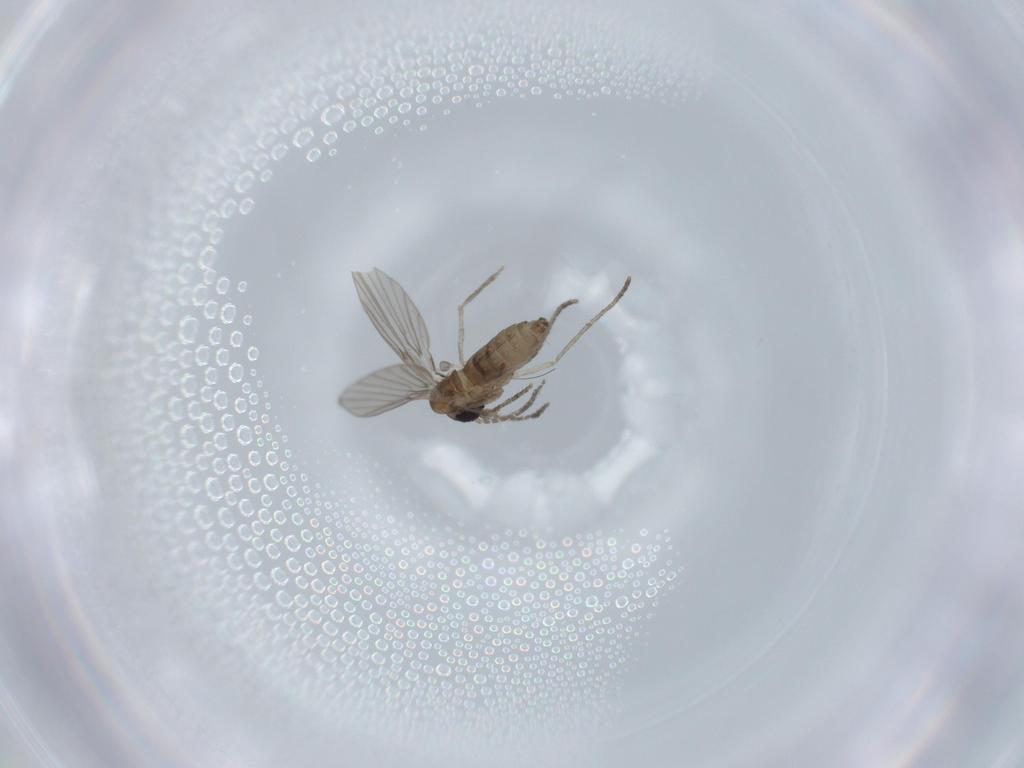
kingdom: Animalia
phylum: Arthropoda
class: Insecta
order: Diptera
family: Psychodidae
